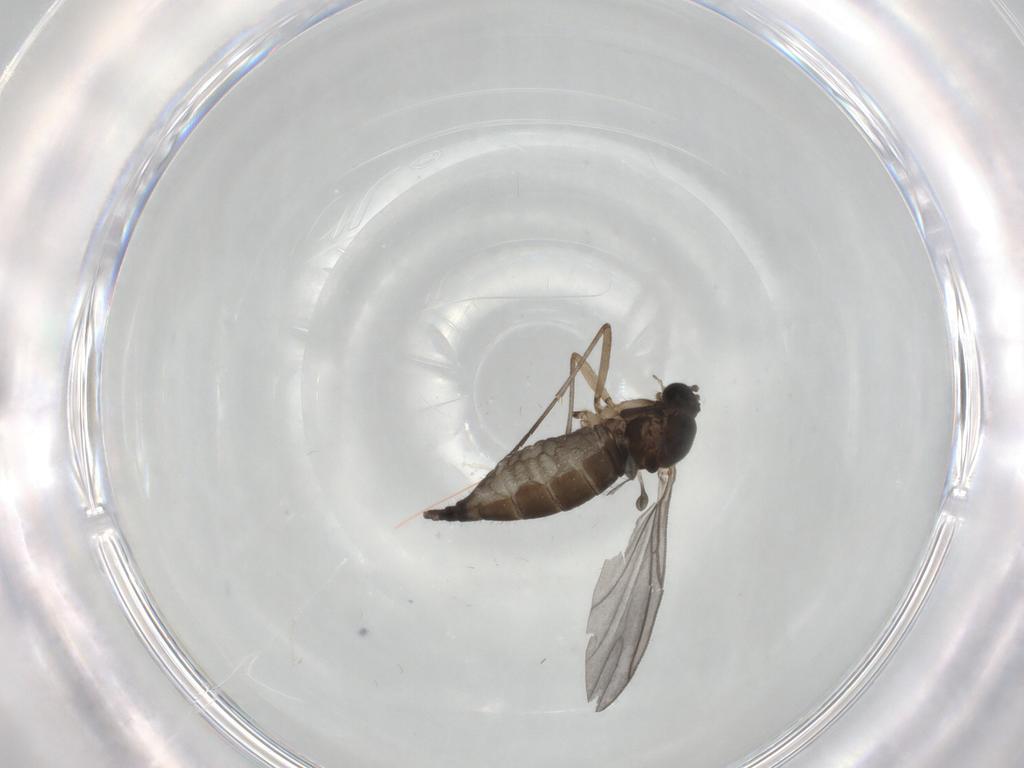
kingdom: Animalia
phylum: Arthropoda
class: Insecta
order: Diptera
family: Sciaridae
